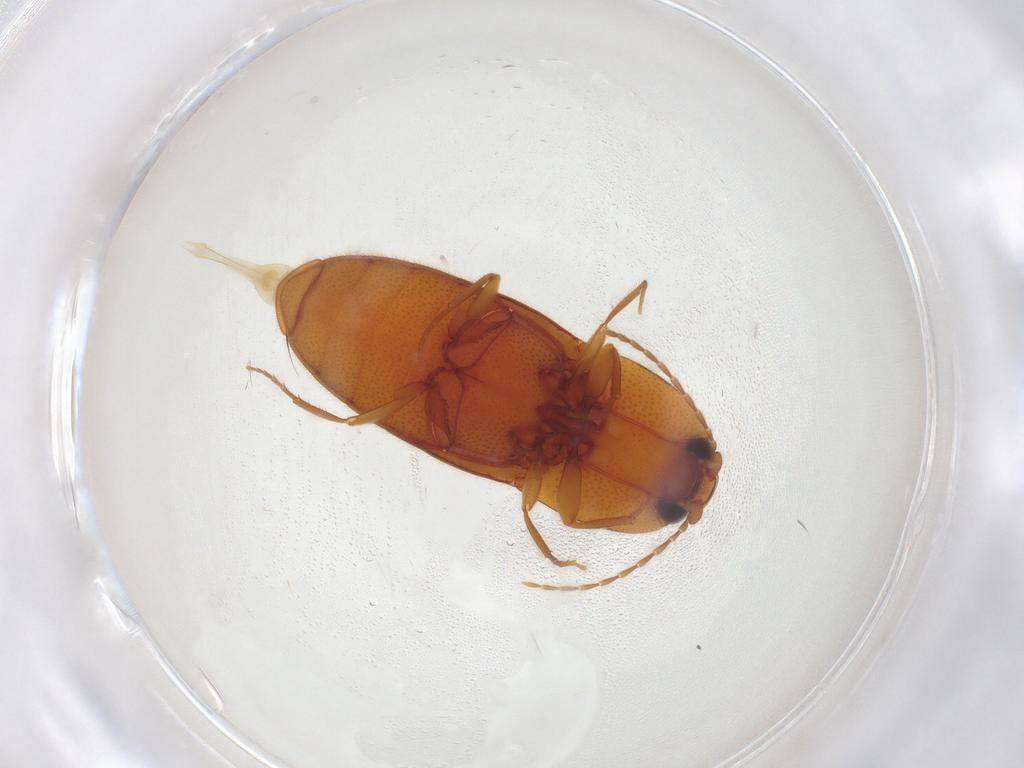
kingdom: Animalia
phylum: Arthropoda
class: Insecta
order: Coleoptera
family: Elateridae
